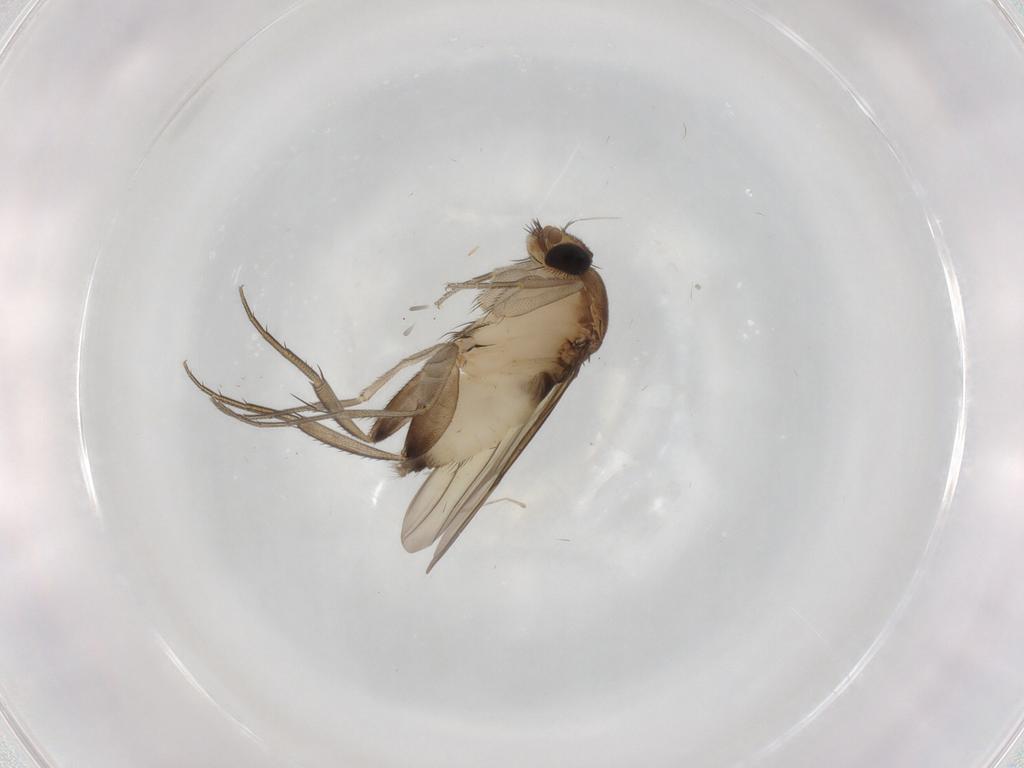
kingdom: Animalia
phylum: Arthropoda
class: Insecta
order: Diptera
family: Phoridae
